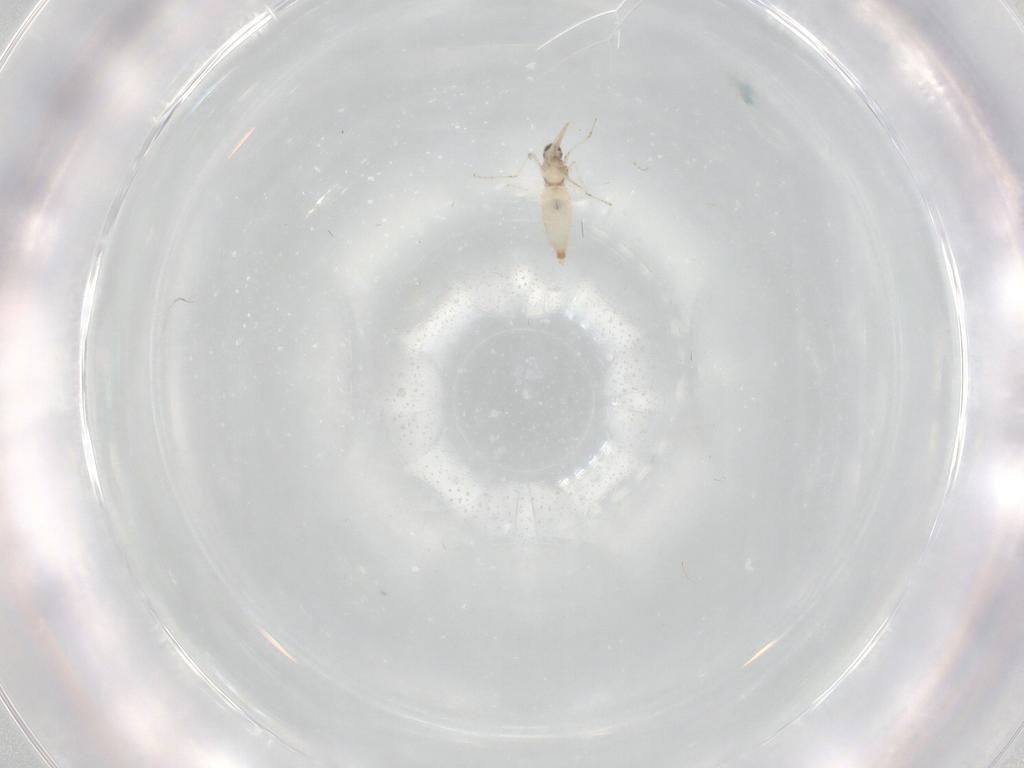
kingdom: Animalia
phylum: Arthropoda
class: Insecta
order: Diptera
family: Cecidomyiidae
